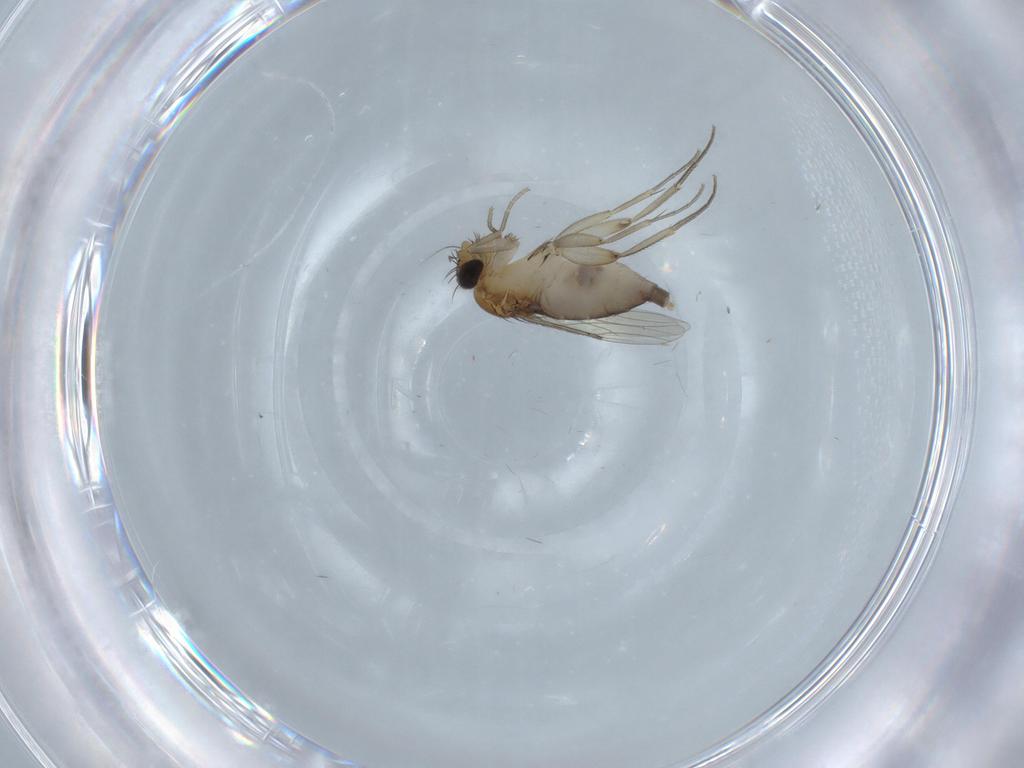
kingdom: Animalia
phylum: Arthropoda
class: Insecta
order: Diptera
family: Phoridae
